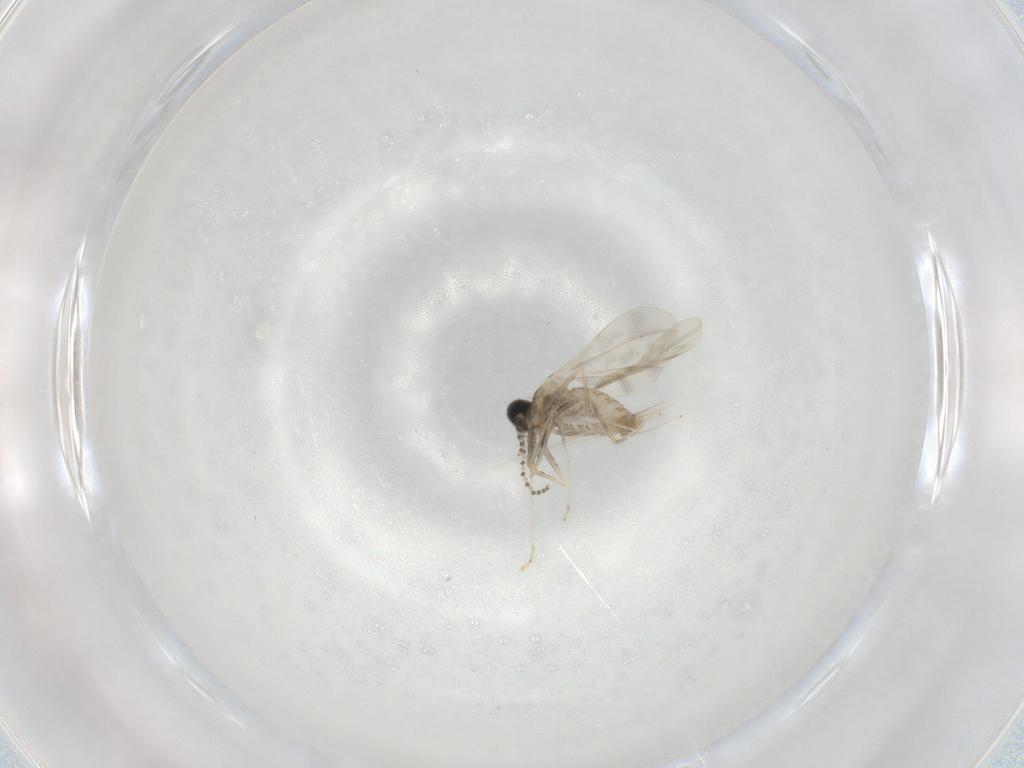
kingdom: Animalia
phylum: Arthropoda
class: Insecta
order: Diptera
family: Cecidomyiidae
